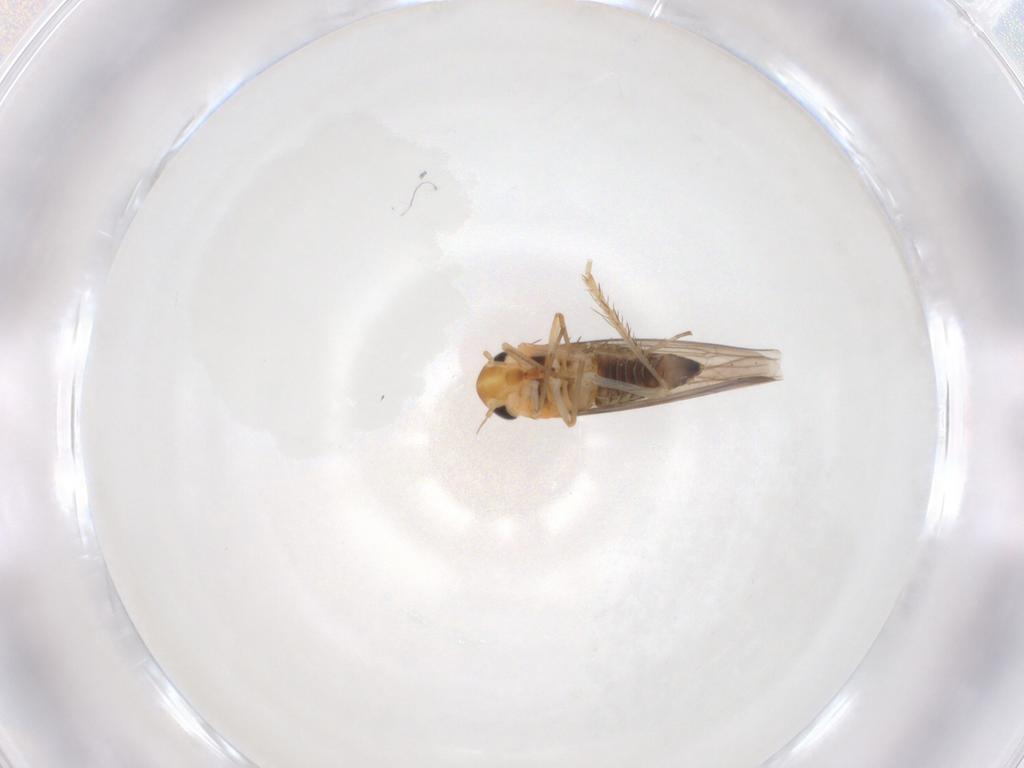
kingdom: Animalia
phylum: Arthropoda
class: Insecta
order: Hemiptera
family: Cicadellidae
